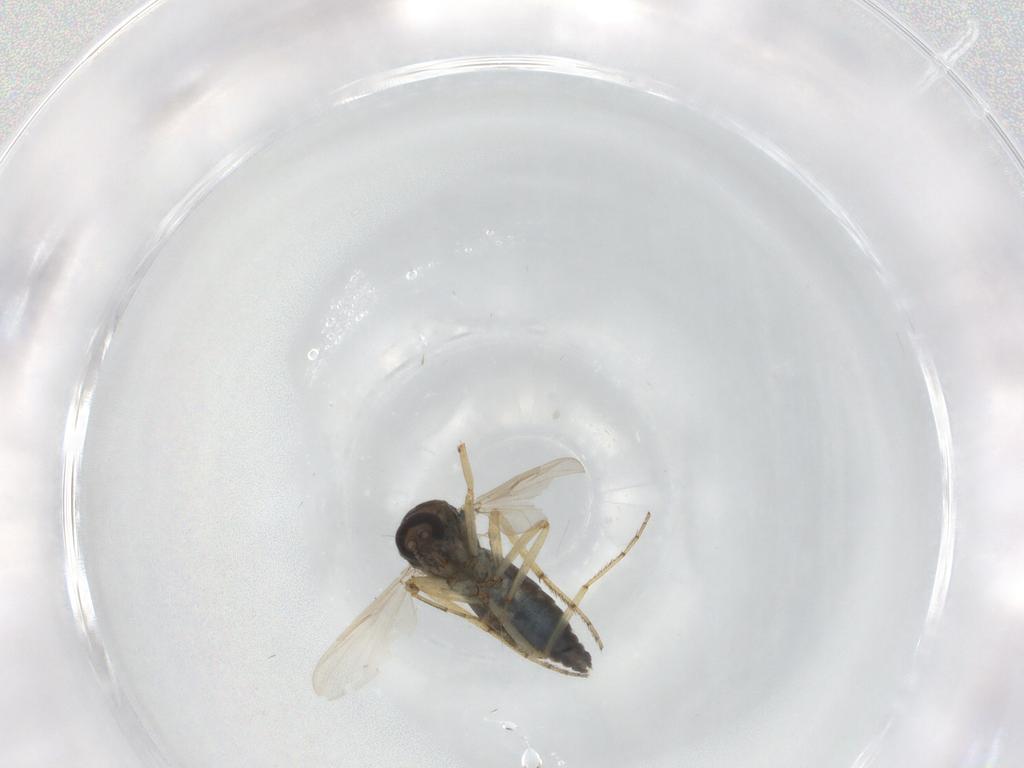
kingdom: Animalia
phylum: Arthropoda
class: Insecta
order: Diptera
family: Ceratopogonidae
